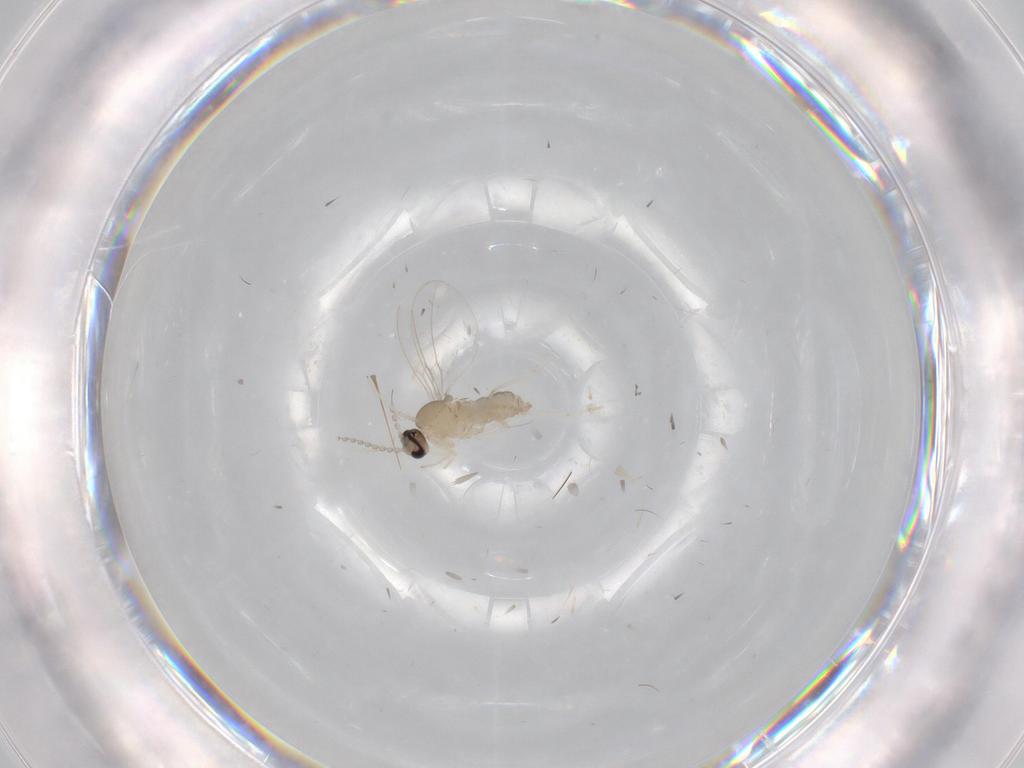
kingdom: Animalia
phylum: Arthropoda
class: Insecta
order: Diptera
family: Cecidomyiidae
